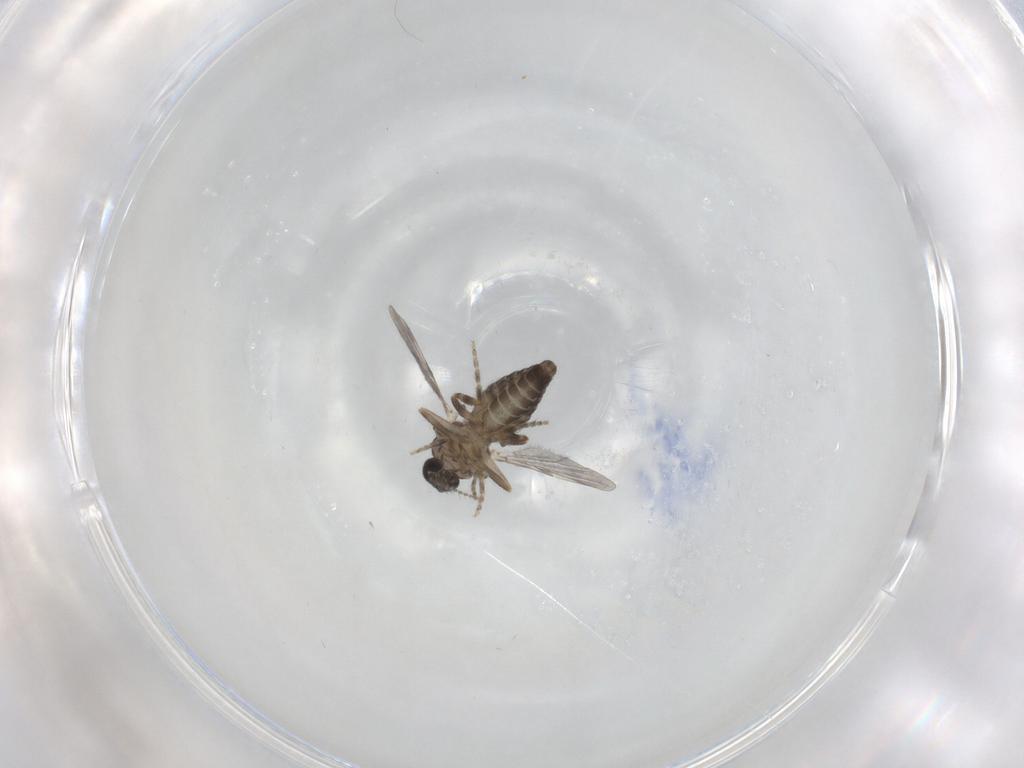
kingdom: Animalia
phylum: Arthropoda
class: Insecta
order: Diptera
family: Ceratopogonidae
